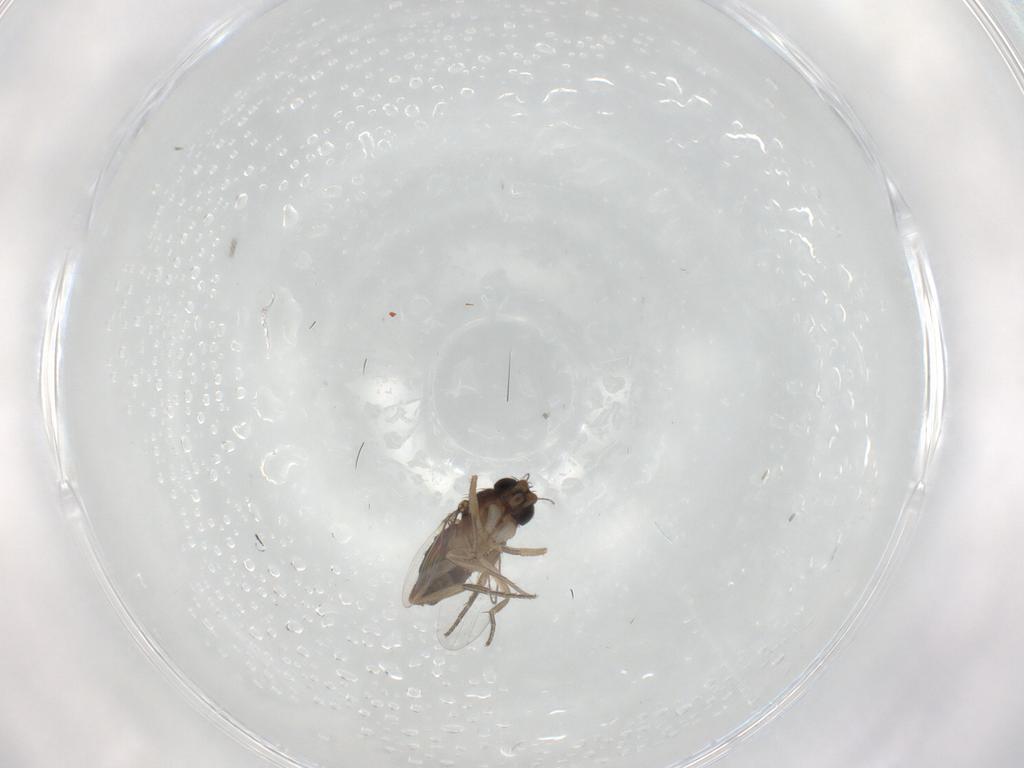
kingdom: Animalia
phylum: Arthropoda
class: Insecta
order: Diptera
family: Phoridae
